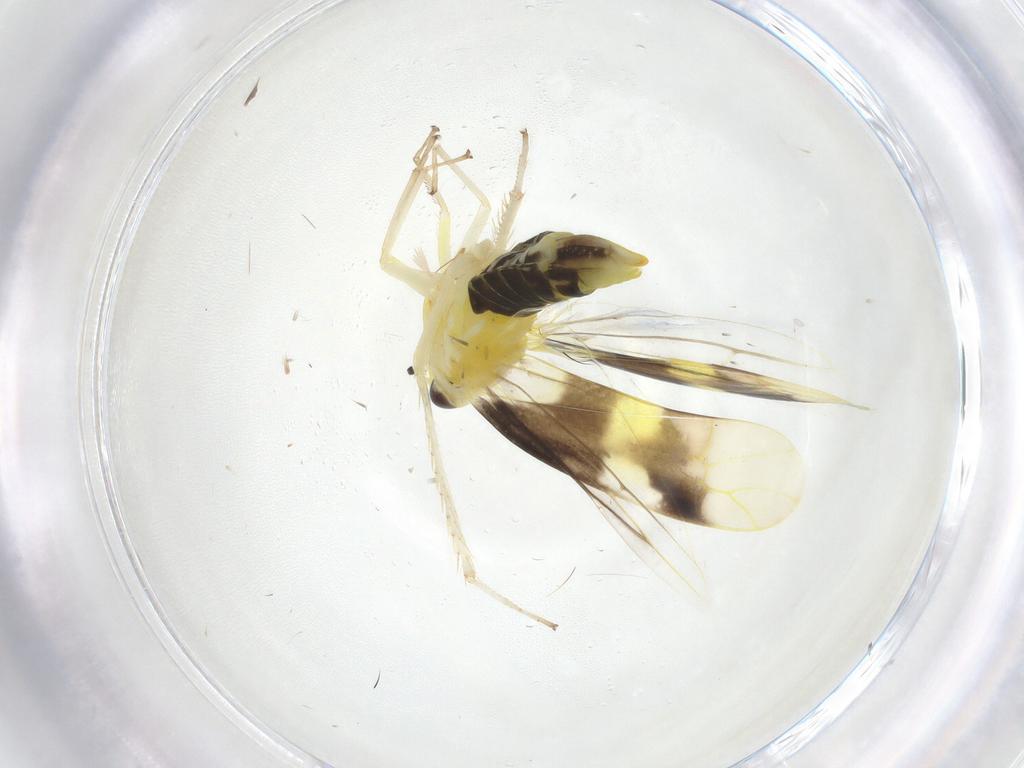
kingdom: Animalia
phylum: Arthropoda
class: Insecta
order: Hemiptera
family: Cicadellidae
